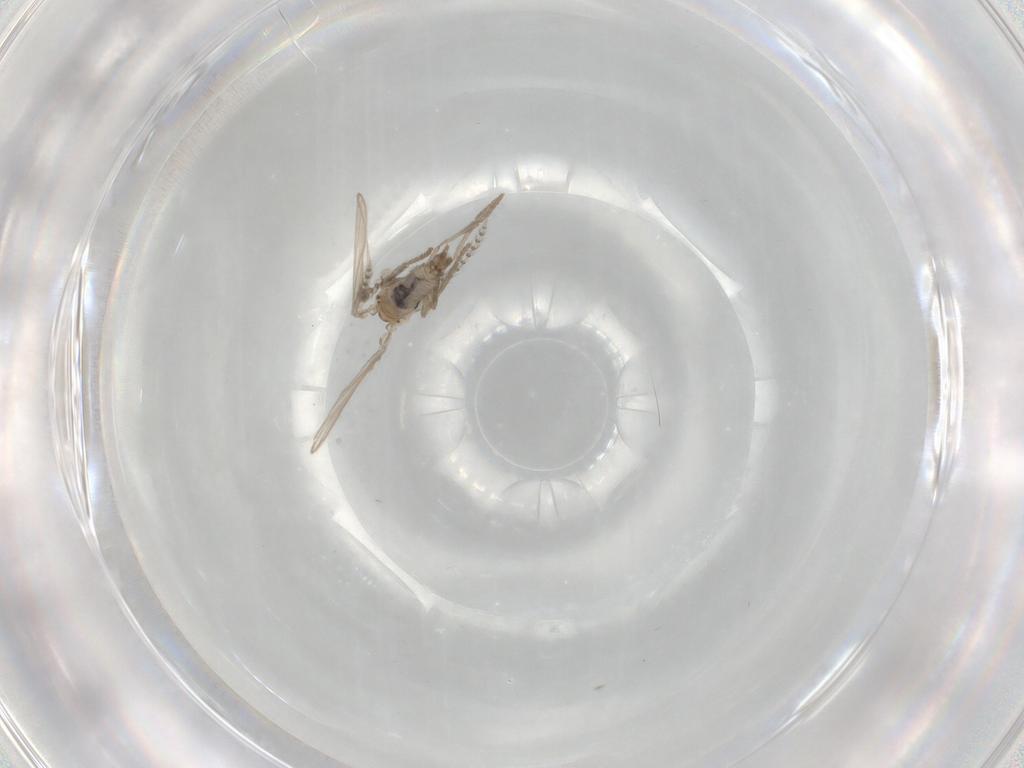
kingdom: Animalia
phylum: Arthropoda
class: Insecta
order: Diptera
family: Psychodidae
